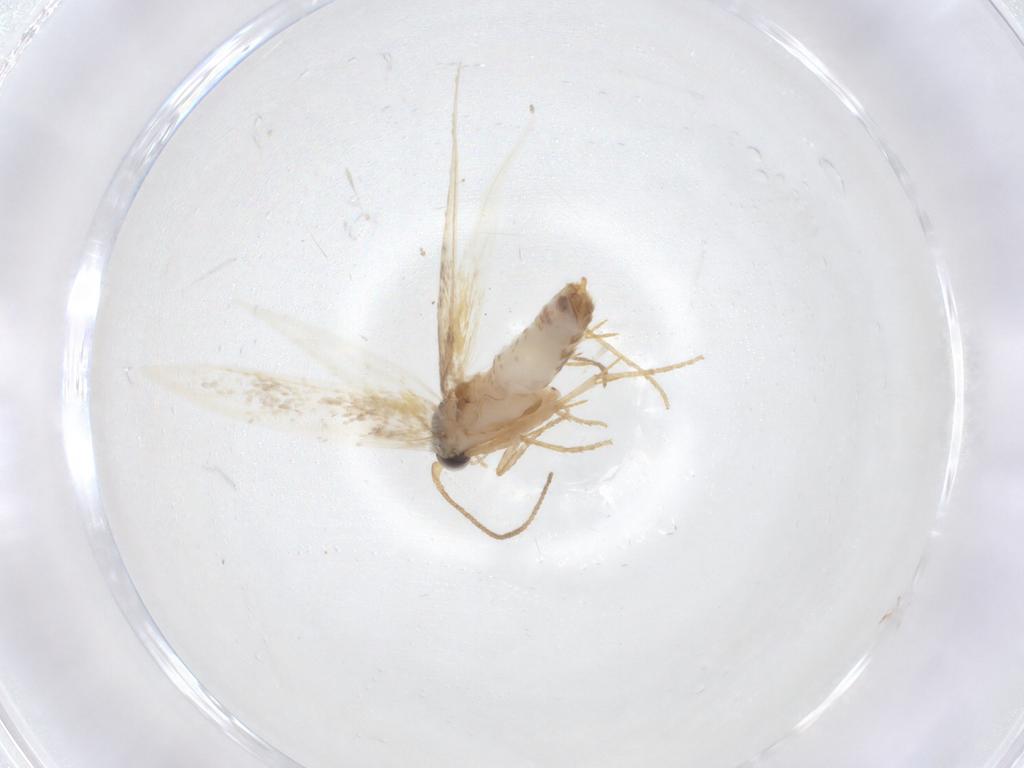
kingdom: Animalia
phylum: Arthropoda
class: Insecta
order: Lepidoptera
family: Nepticulidae
